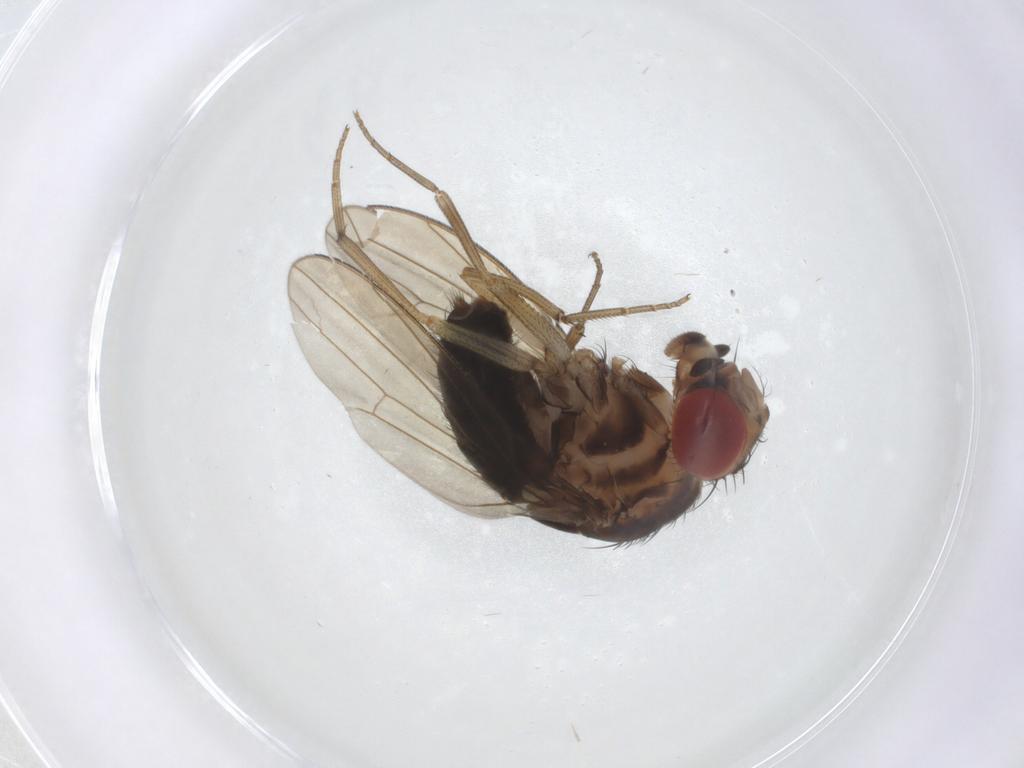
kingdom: Animalia
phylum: Arthropoda
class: Insecta
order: Diptera
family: Drosophilidae
